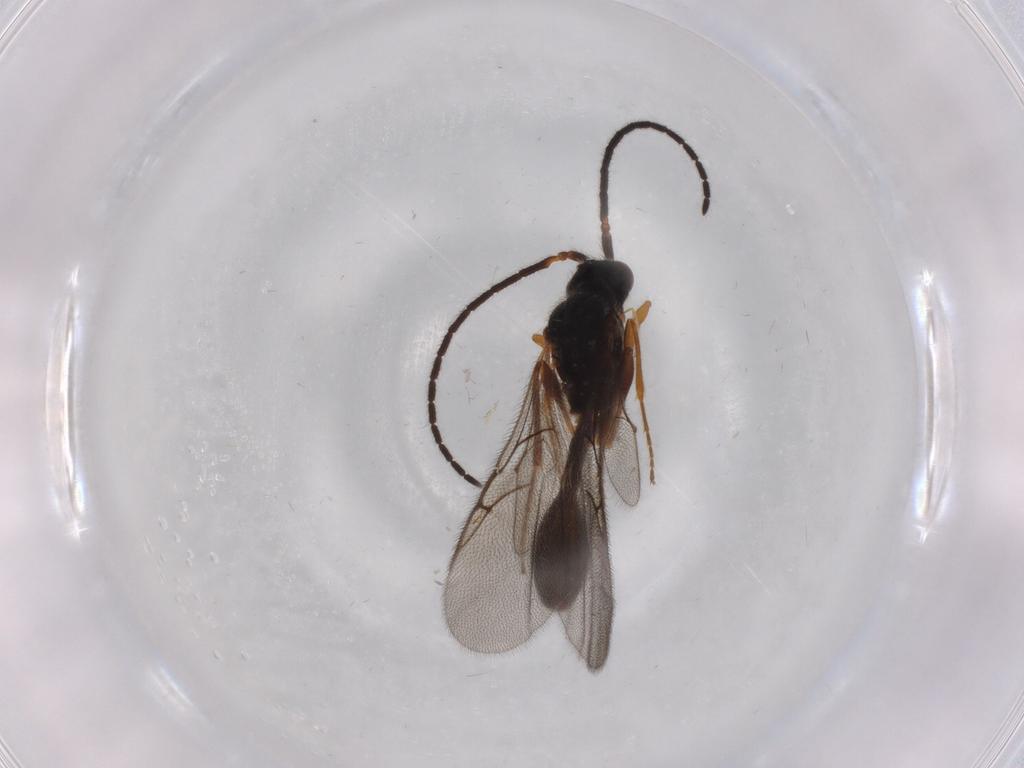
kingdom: Animalia
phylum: Arthropoda
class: Insecta
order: Hymenoptera
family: Diapriidae
